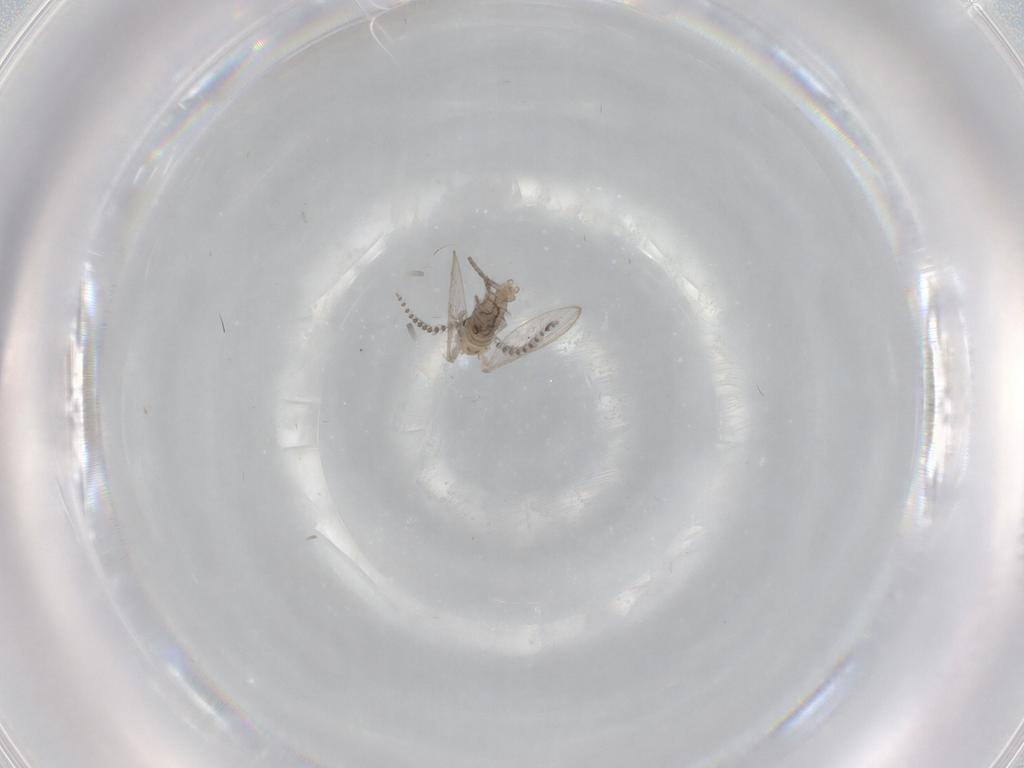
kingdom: Animalia
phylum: Arthropoda
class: Insecta
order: Diptera
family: Psychodidae
